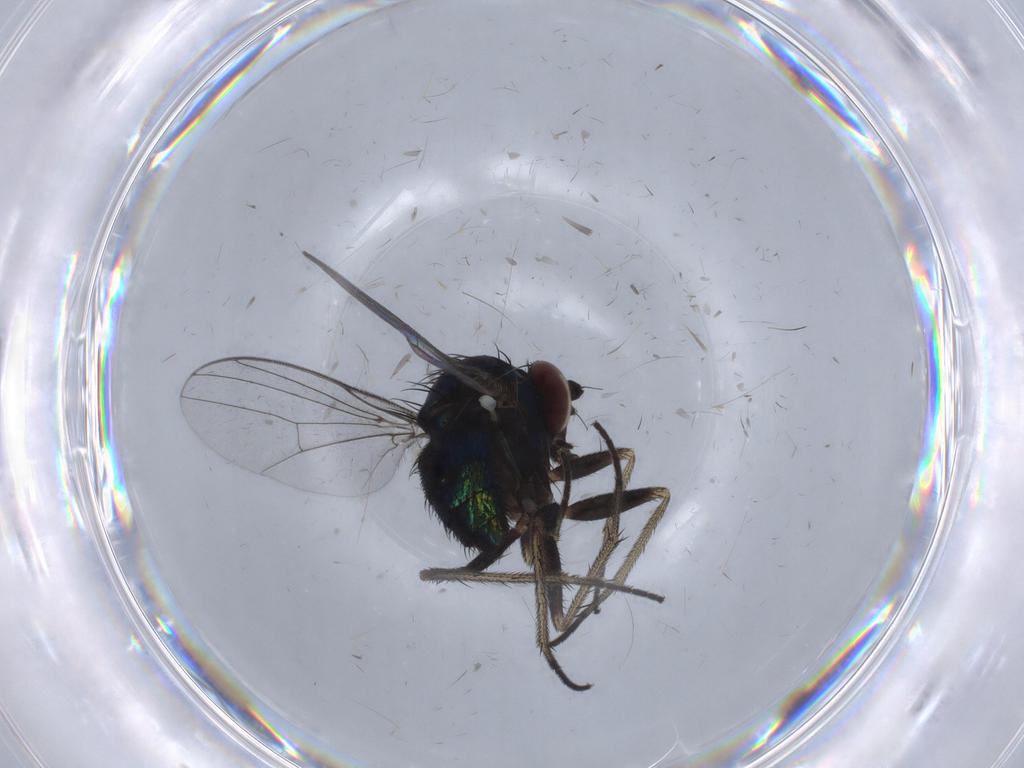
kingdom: Animalia
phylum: Arthropoda
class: Insecta
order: Diptera
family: Dolichopodidae
